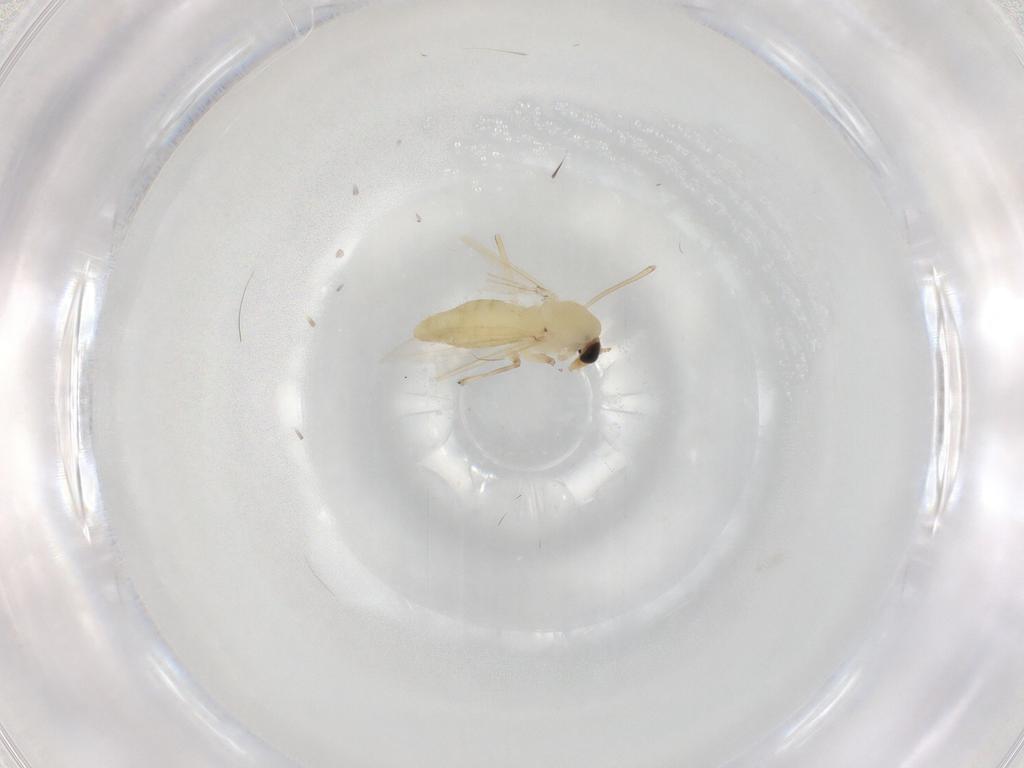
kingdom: Animalia
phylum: Arthropoda
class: Insecta
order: Diptera
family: Chironomidae
